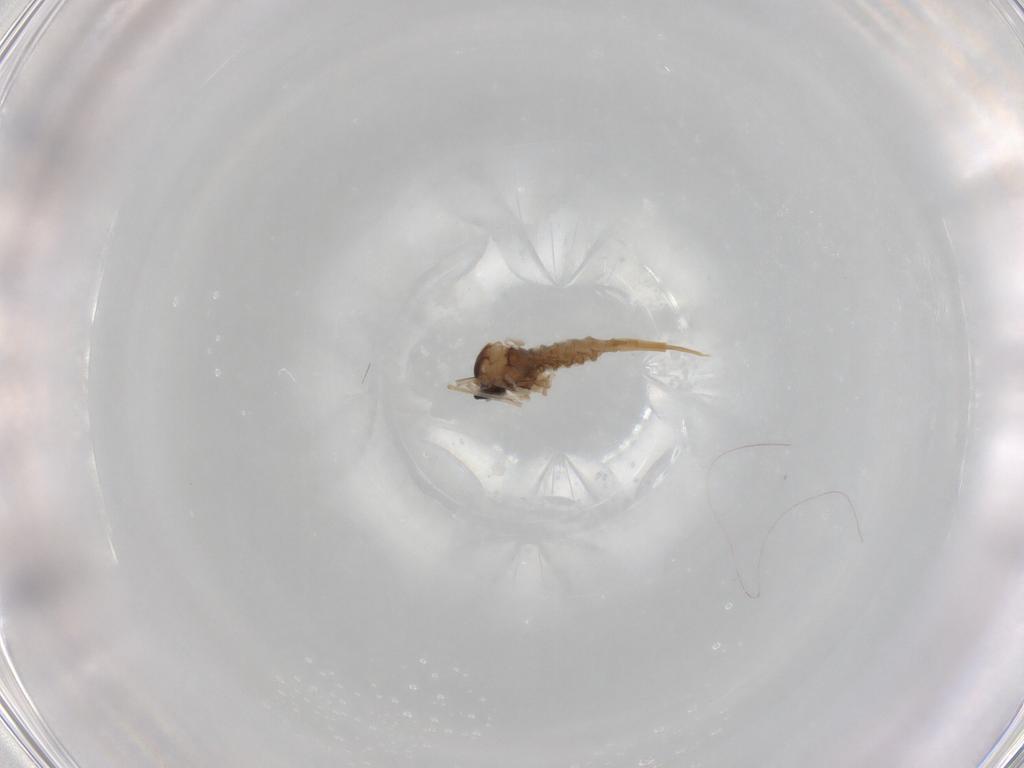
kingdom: Animalia
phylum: Arthropoda
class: Insecta
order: Diptera
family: Cecidomyiidae
